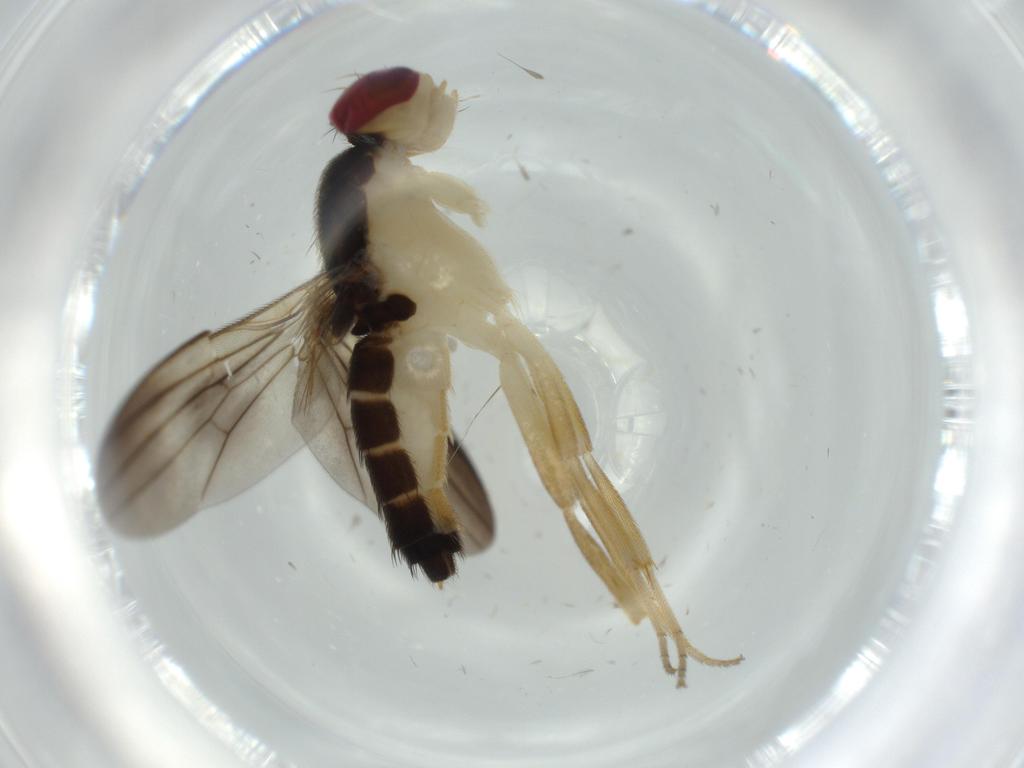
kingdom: Animalia
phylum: Arthropoda
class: Insecta
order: Diptera
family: Clusiidae
